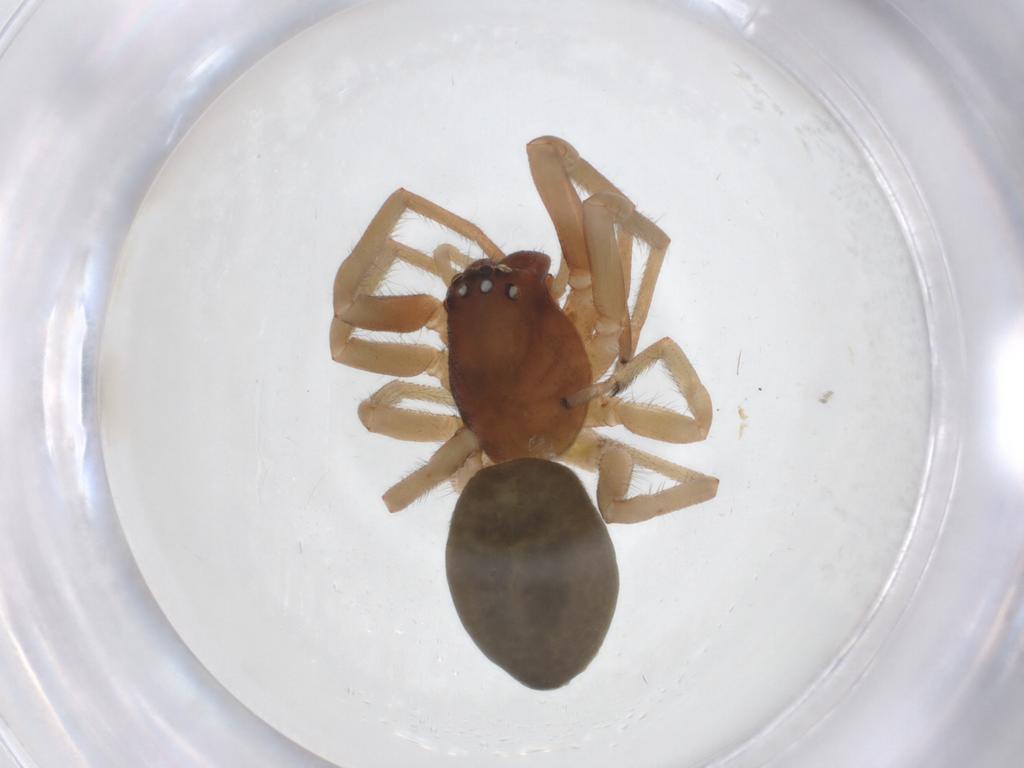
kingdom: Animalia
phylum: Arthropoda
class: Arachnida
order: Araneae
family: Trachelidae
